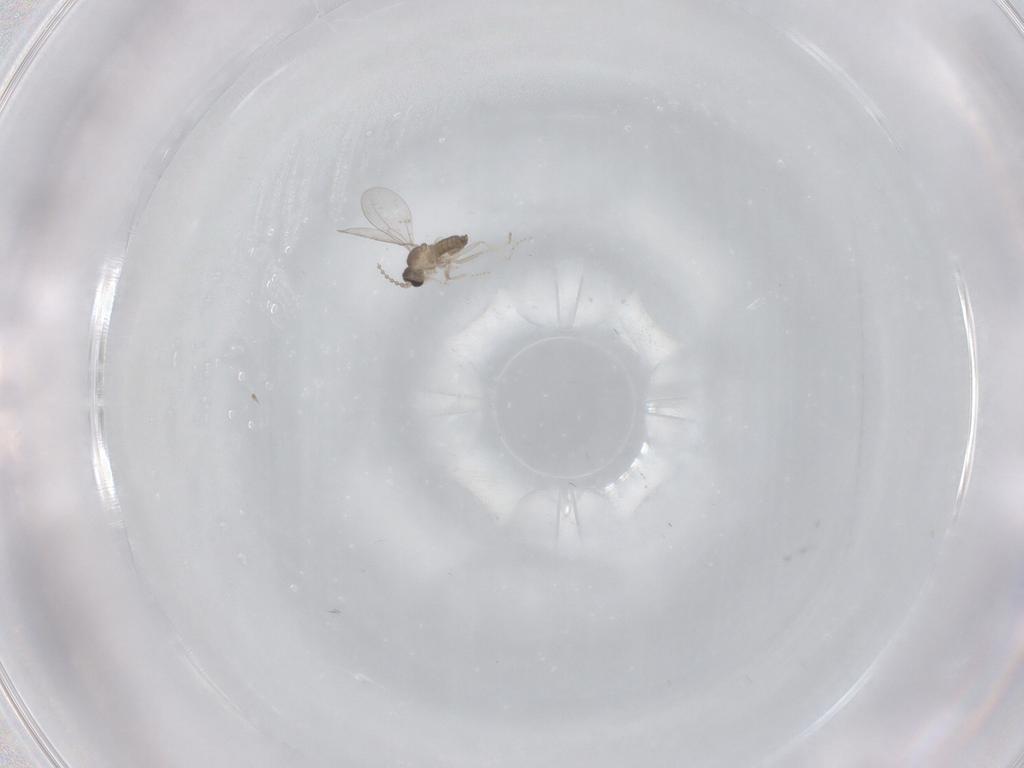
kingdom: Animalia
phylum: Arthropoda
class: Insecta
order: Diptera
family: Cecidomyiidae
